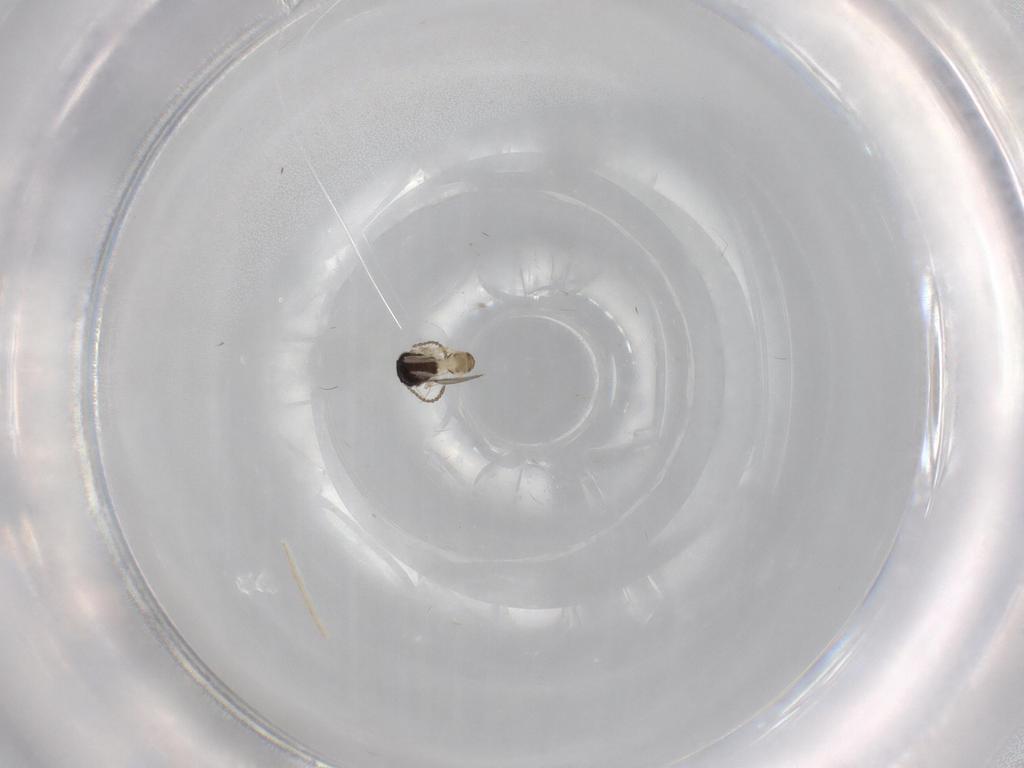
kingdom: Animalia
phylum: Arthropoda
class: Insecta
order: Hymenoptera
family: Scelionidae
